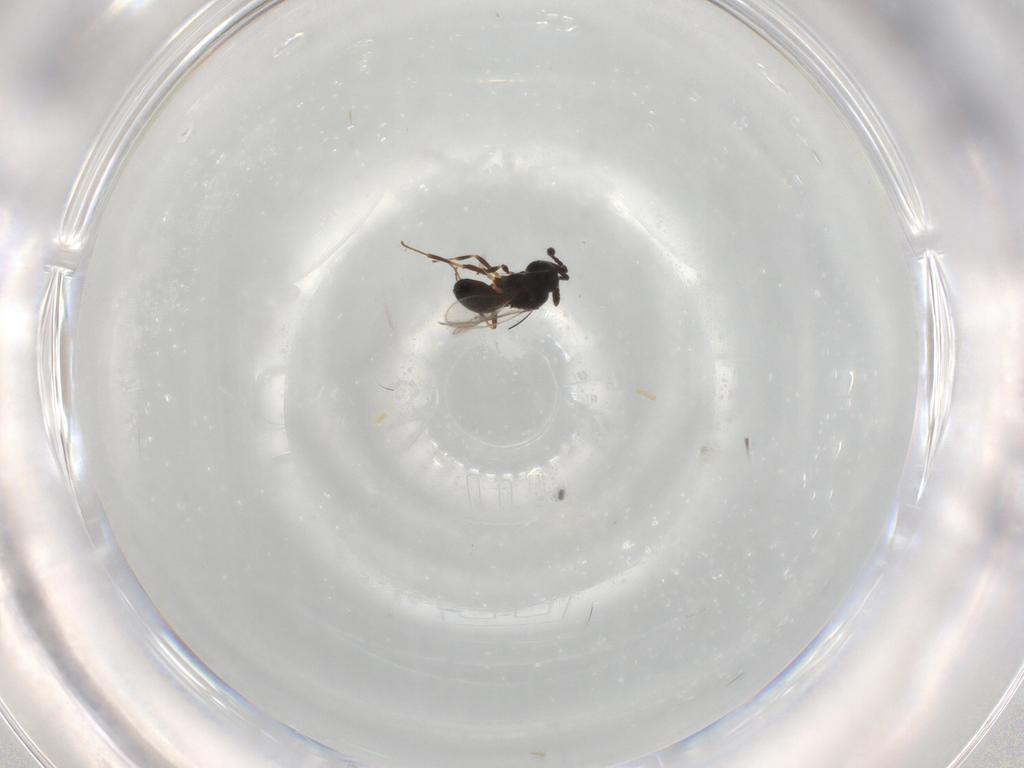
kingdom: Animalia
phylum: Arthropoda
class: Insecta
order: Hymenoptera
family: Scelionidae
